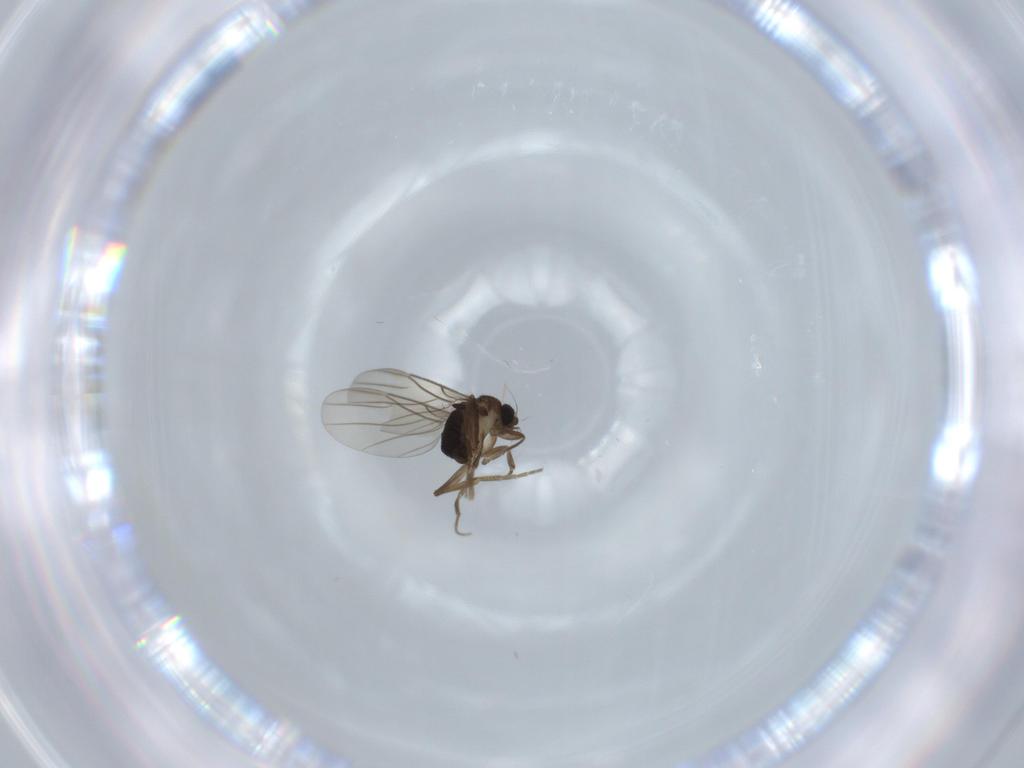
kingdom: Animalia
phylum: Arthropoda
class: Insecta
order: Diptera
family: Phoridae
